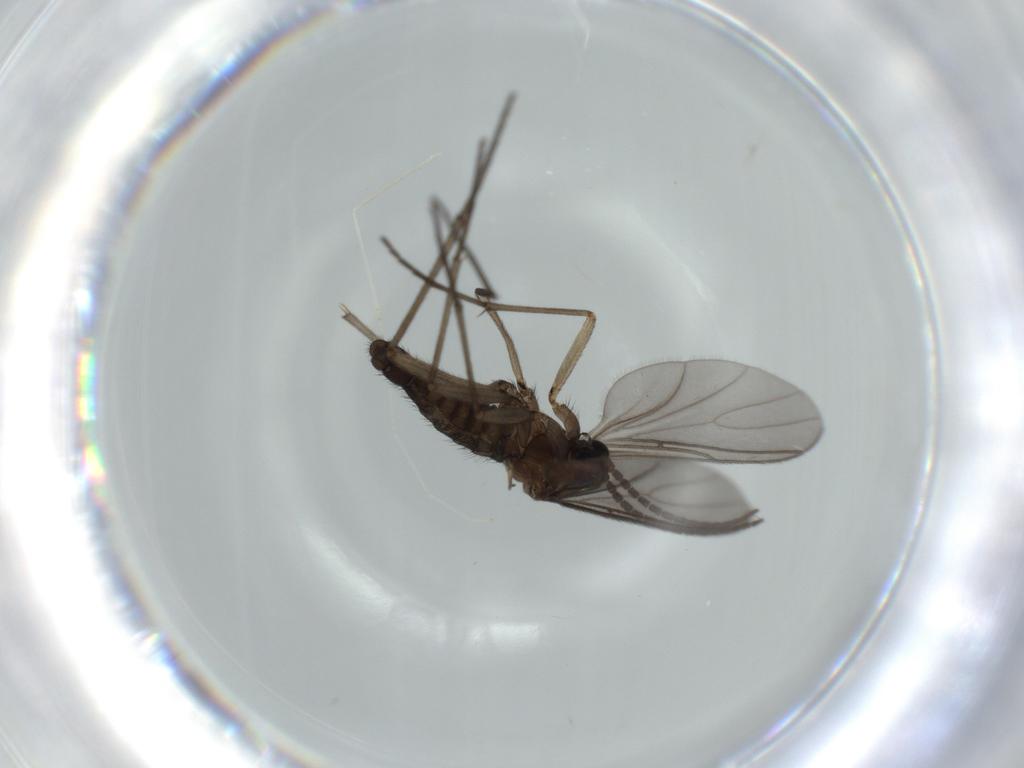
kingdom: Animalia
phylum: Arthropoda
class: Insecta
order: Diptera
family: Sciaridae
